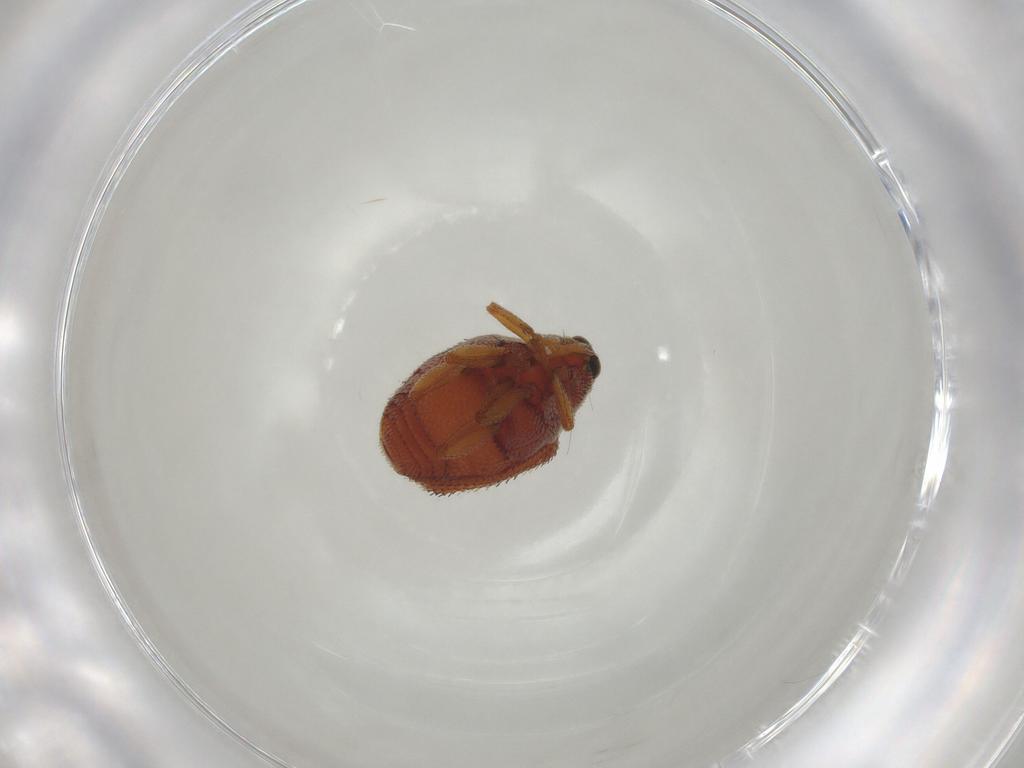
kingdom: Animalia
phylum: Arthropoda
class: Insecta
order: Coleoptera
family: Curculionidae
